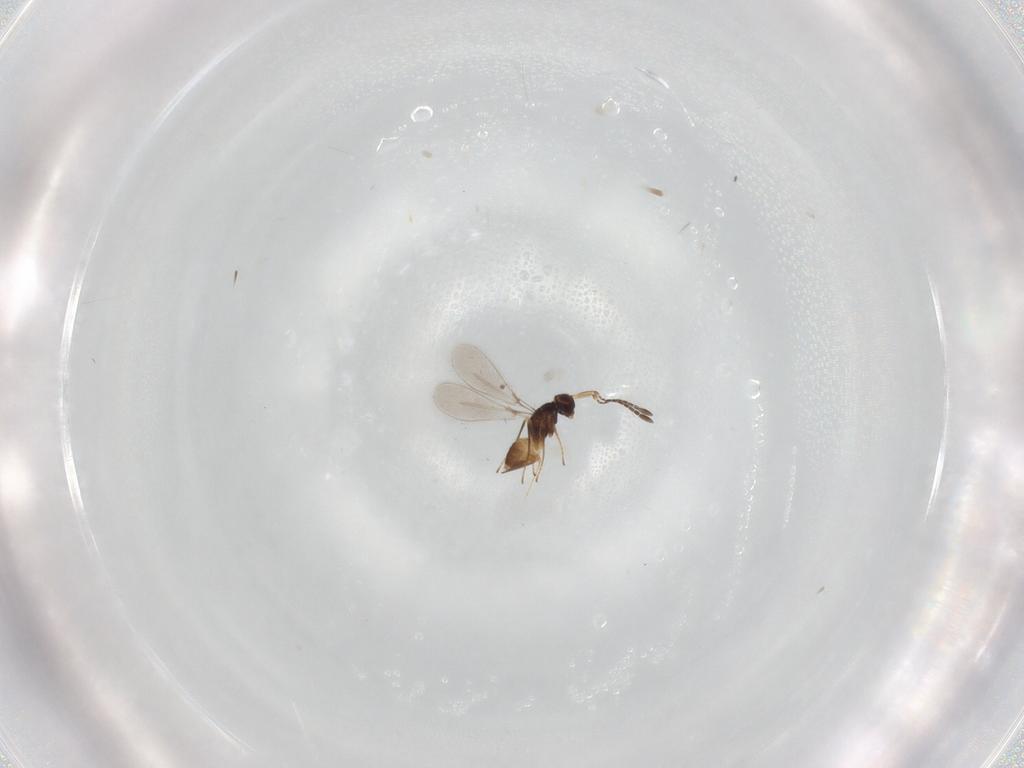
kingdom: Animalia
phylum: Arthropoda
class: Insecta
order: Hymenoptera
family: Mymaridae
